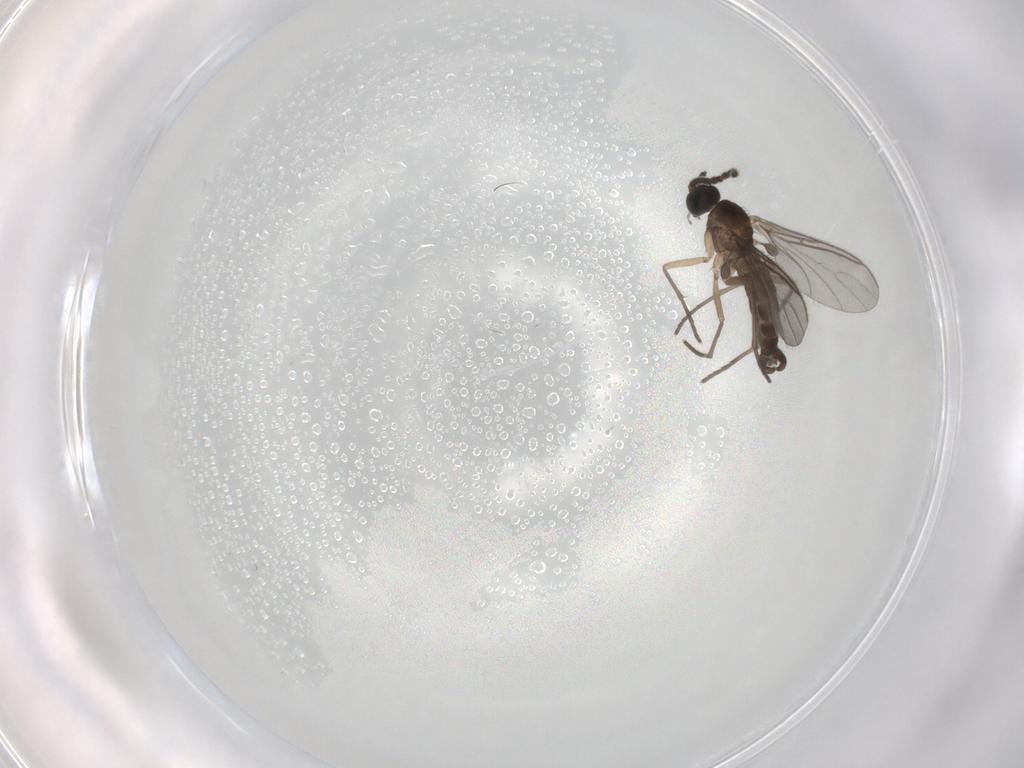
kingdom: Animalia
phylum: Arthropoda
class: Insecta
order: Diptera
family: Sciaridae
